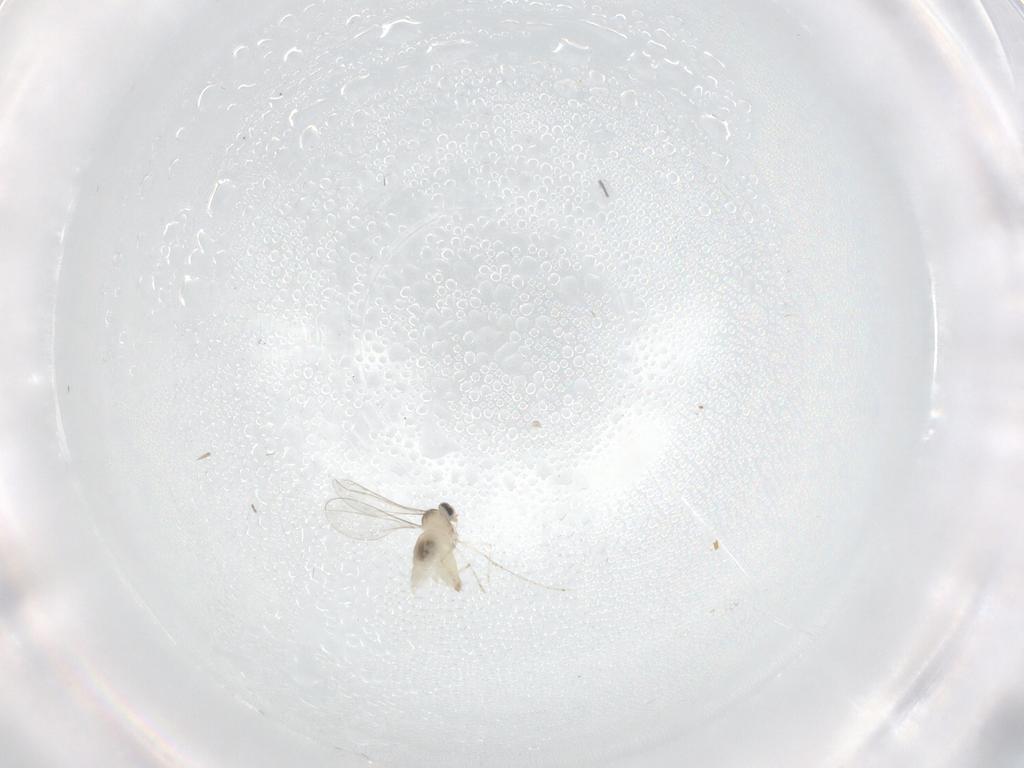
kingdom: Animalia
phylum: Arthropoda
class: Insecta
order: Diptera
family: Cecidomyiidae
